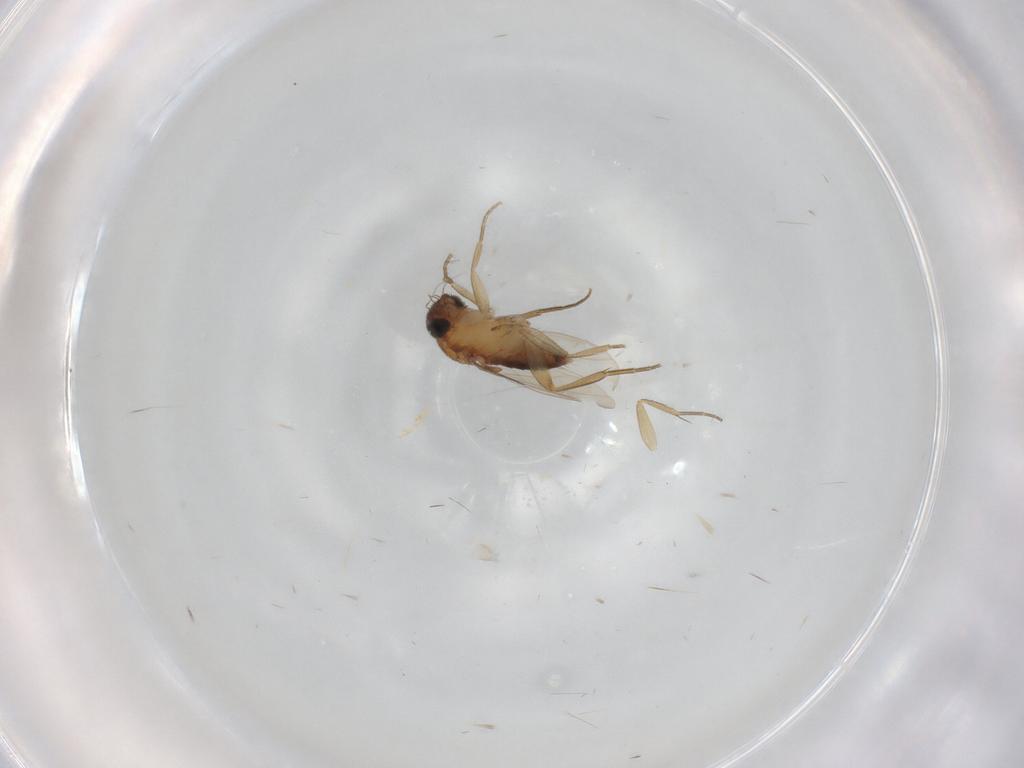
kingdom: Animalia
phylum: Arthropoda
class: Insecta
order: Diptera
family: Phoridae
